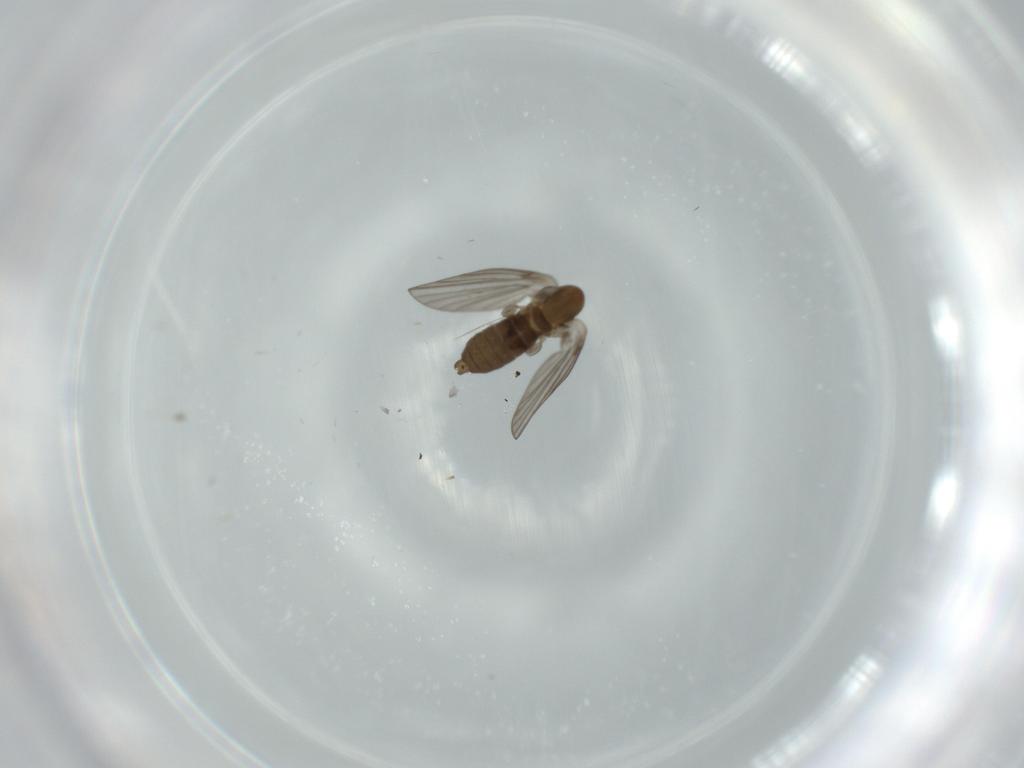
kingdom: Animalia
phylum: Arthropoda
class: Insecta
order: Diptera
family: Psychodidae
